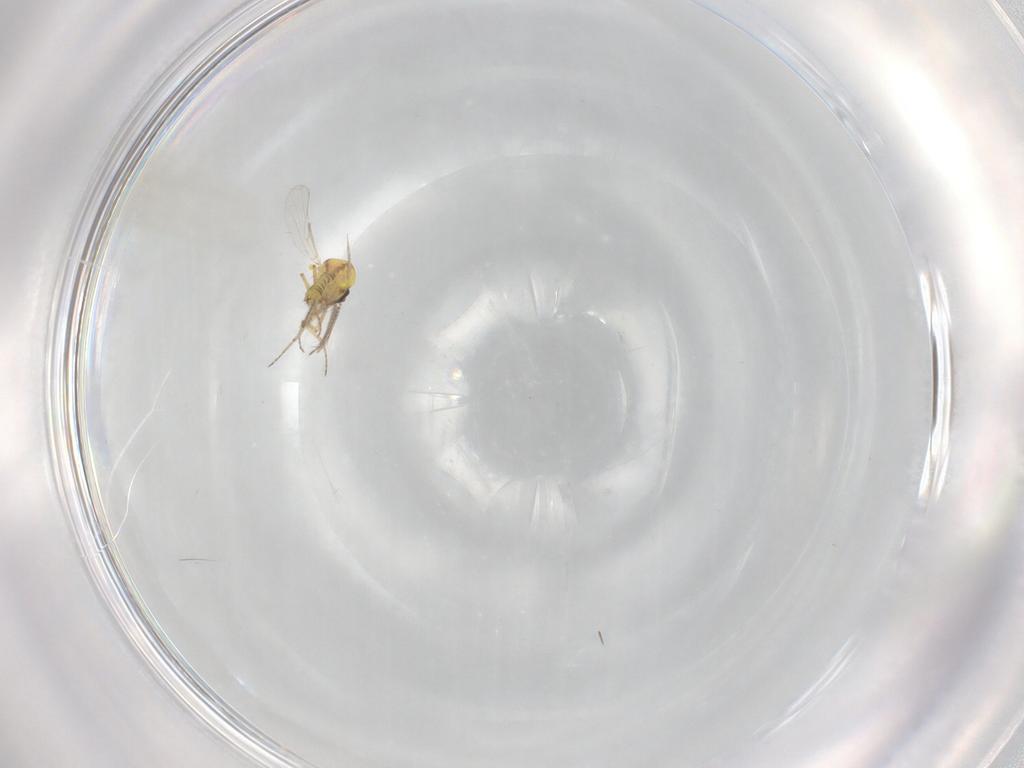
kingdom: Animalia
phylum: Arthropoda
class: Insecta
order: Diptera
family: Ceratopogonidae
